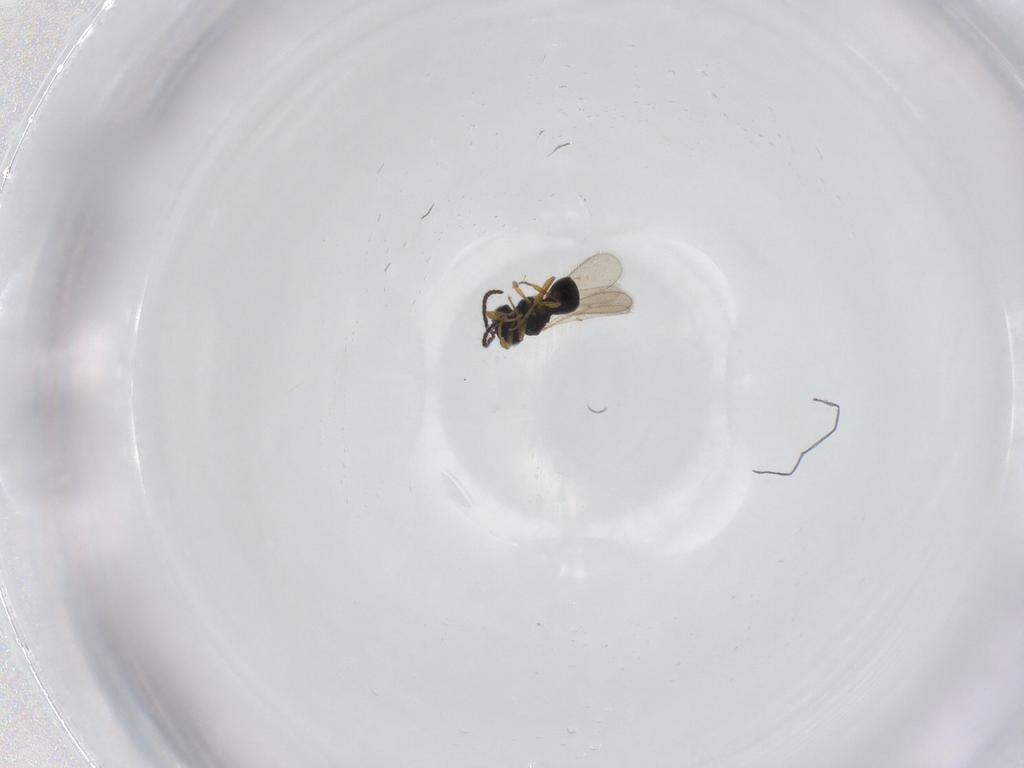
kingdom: Animalia
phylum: Arthropoda
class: Insecta
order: Hymenoptera
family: Scelionidae
